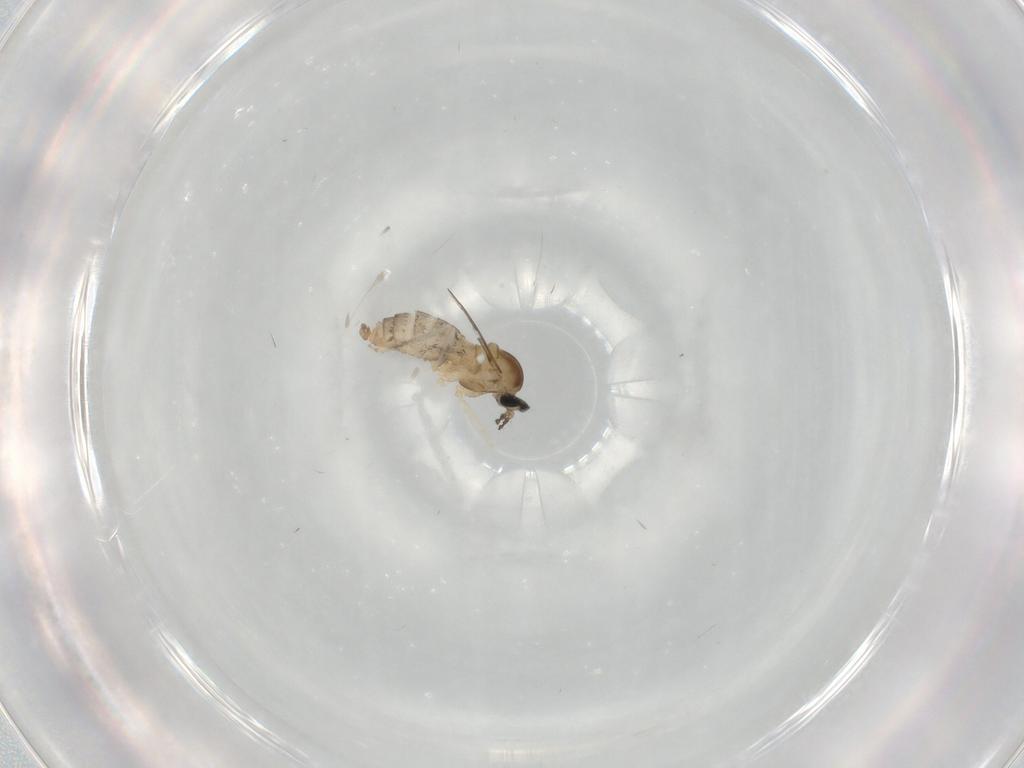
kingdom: Animalia
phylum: Arthropoda
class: Insecta
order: Diptera
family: Cecidomyiidae
